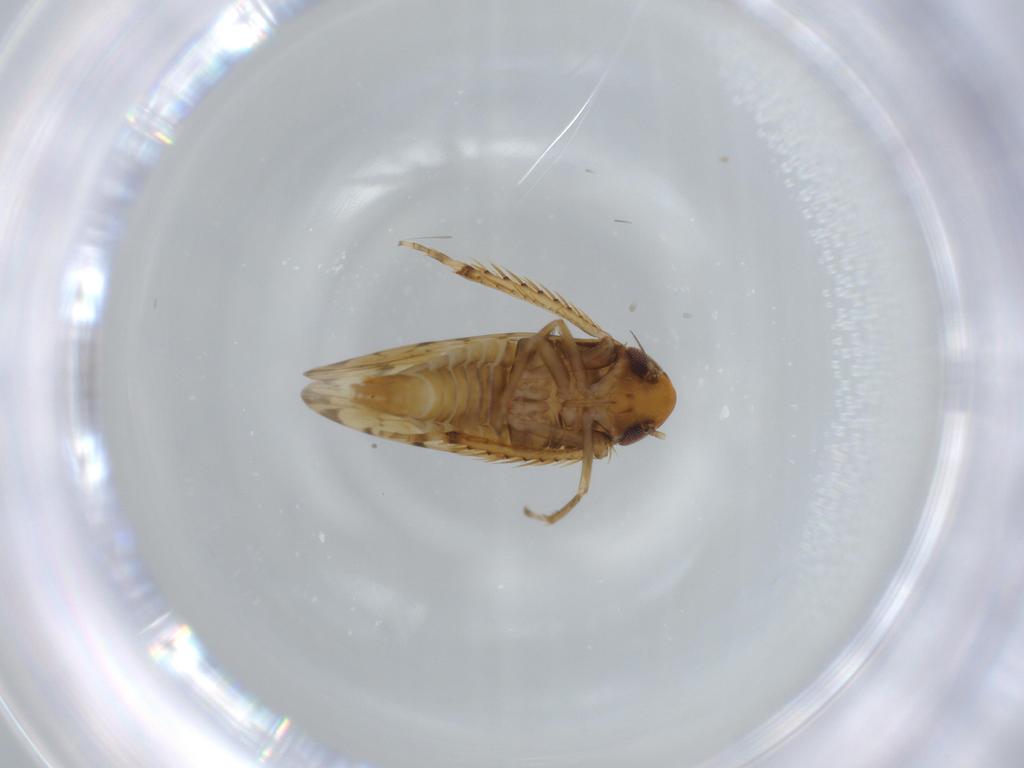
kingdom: Animalia
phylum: Arthropoda
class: Insecta
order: Hemiptera
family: Cicadellidae
